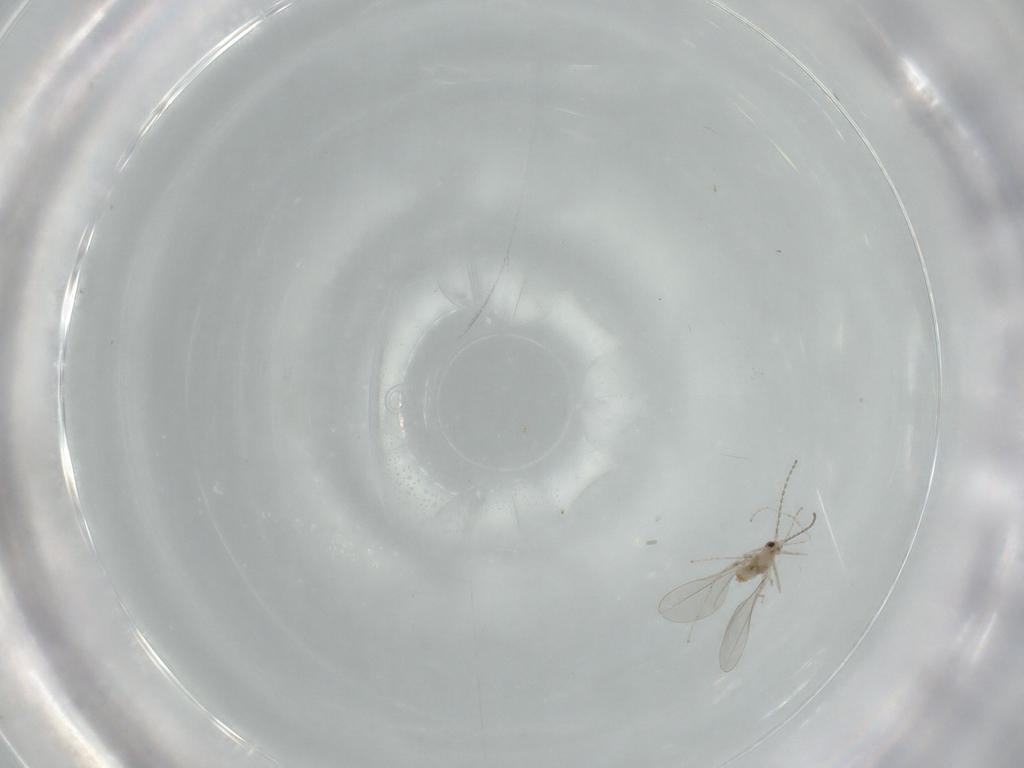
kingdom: Animalia
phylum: Arthropoda
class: Insecta
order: Diptera
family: Cecidomyiidae
